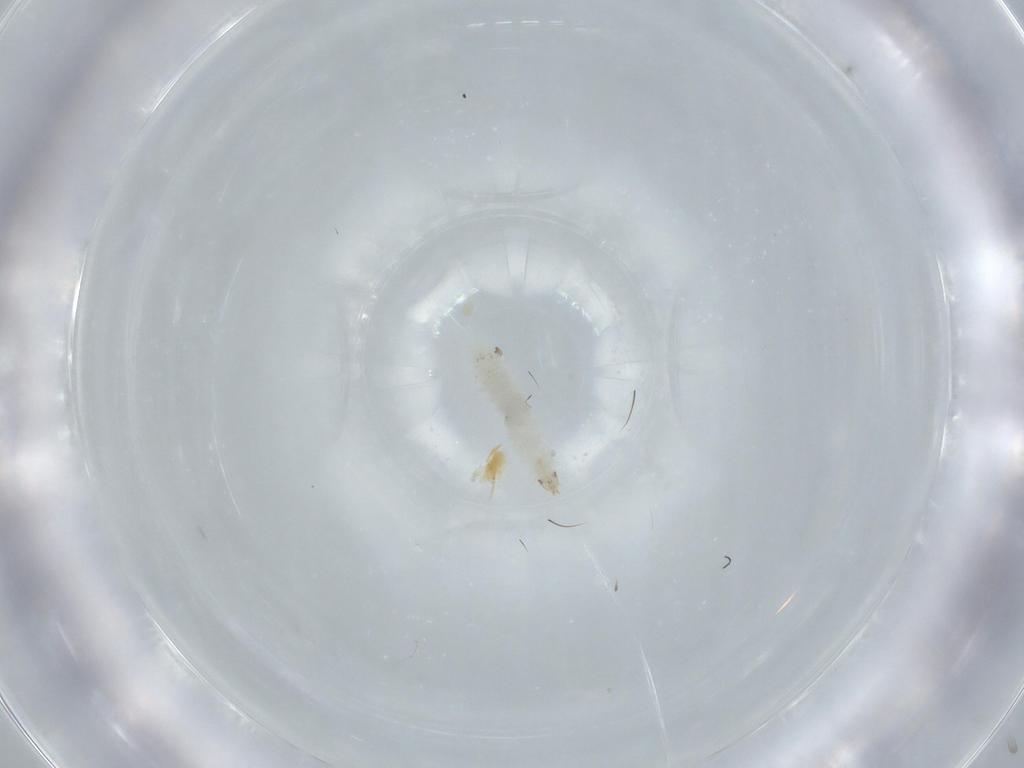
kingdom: Animalia
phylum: Arthropoda
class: Insecta
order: Diptera
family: Stratiomyidae
